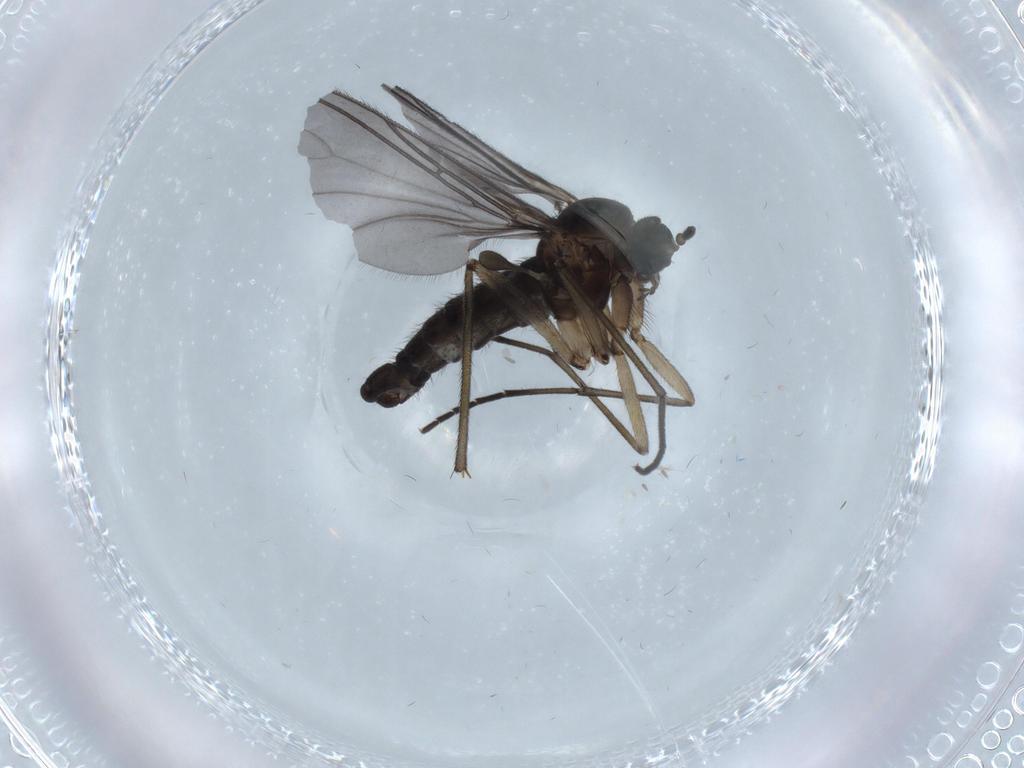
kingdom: Animalia
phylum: Arthropoda
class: Insecta
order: Diptera
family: Sciaridae
